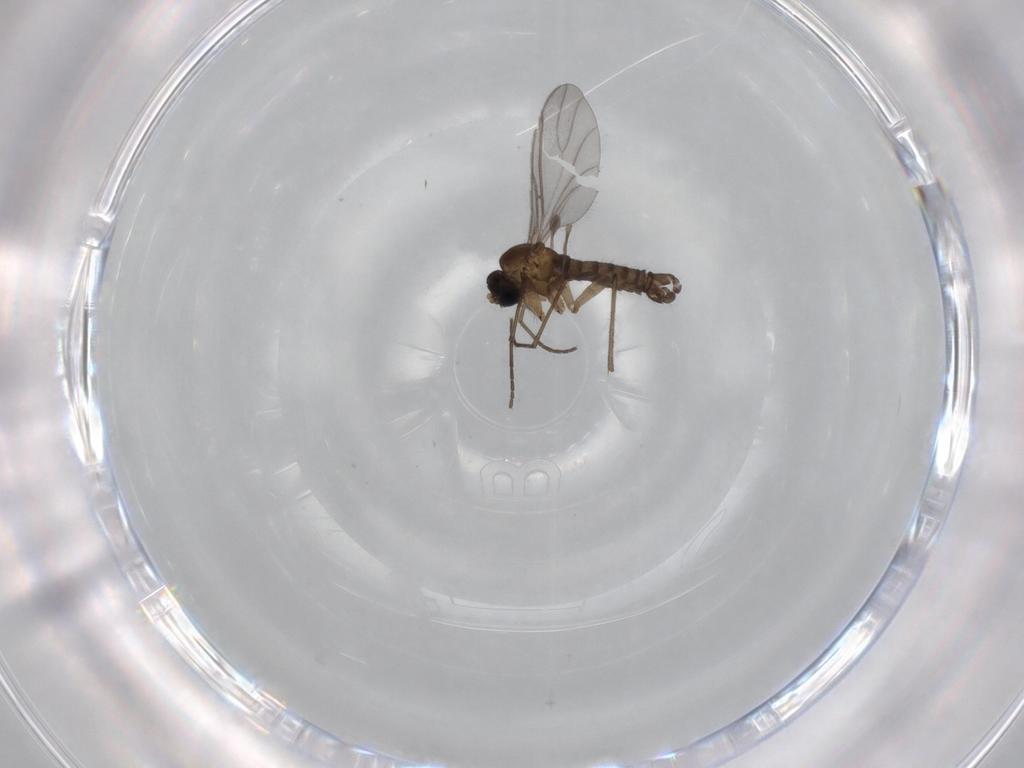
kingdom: Animalia
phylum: Arthropoda
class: Insecta
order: Diptera
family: Sciaridae
